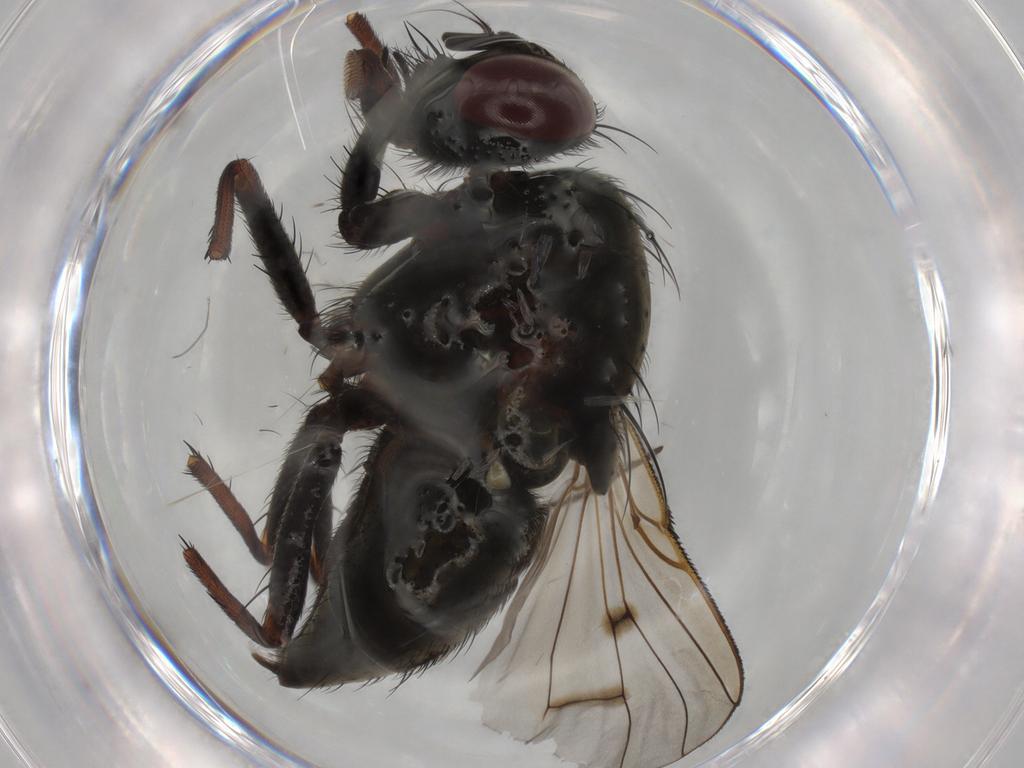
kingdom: Animalia
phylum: Arthropoda
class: Insecta
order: Diptera
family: Muscidae
